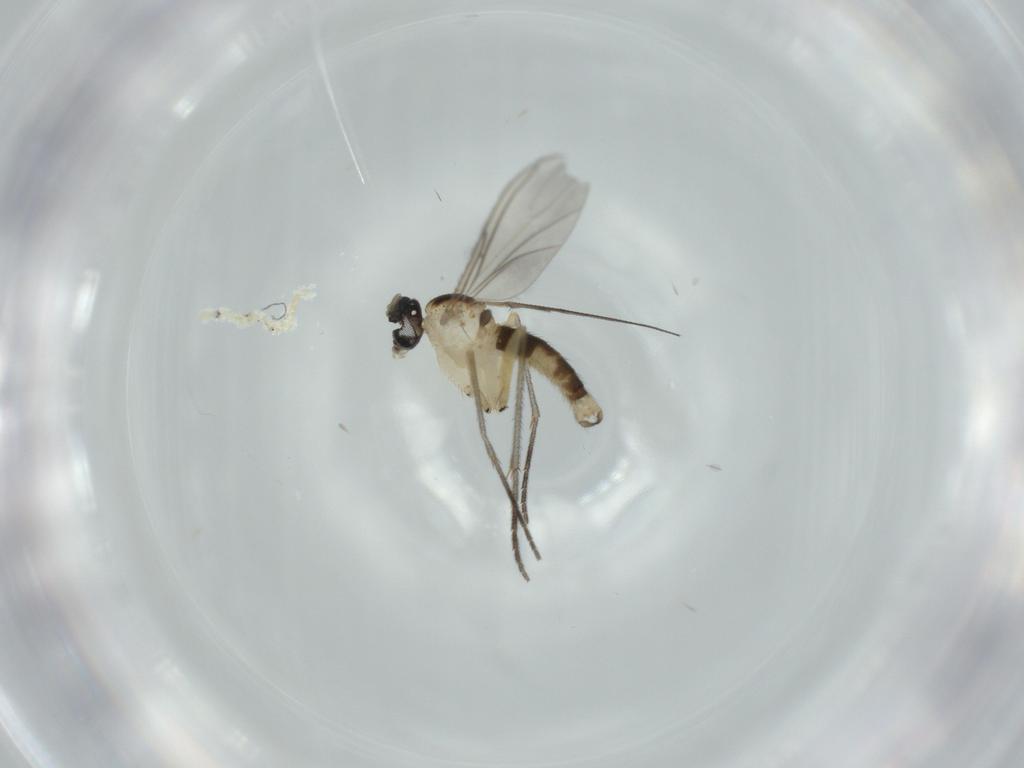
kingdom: Animalia
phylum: Arthropoda
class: Insecta
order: Diptera
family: Sciaridae
